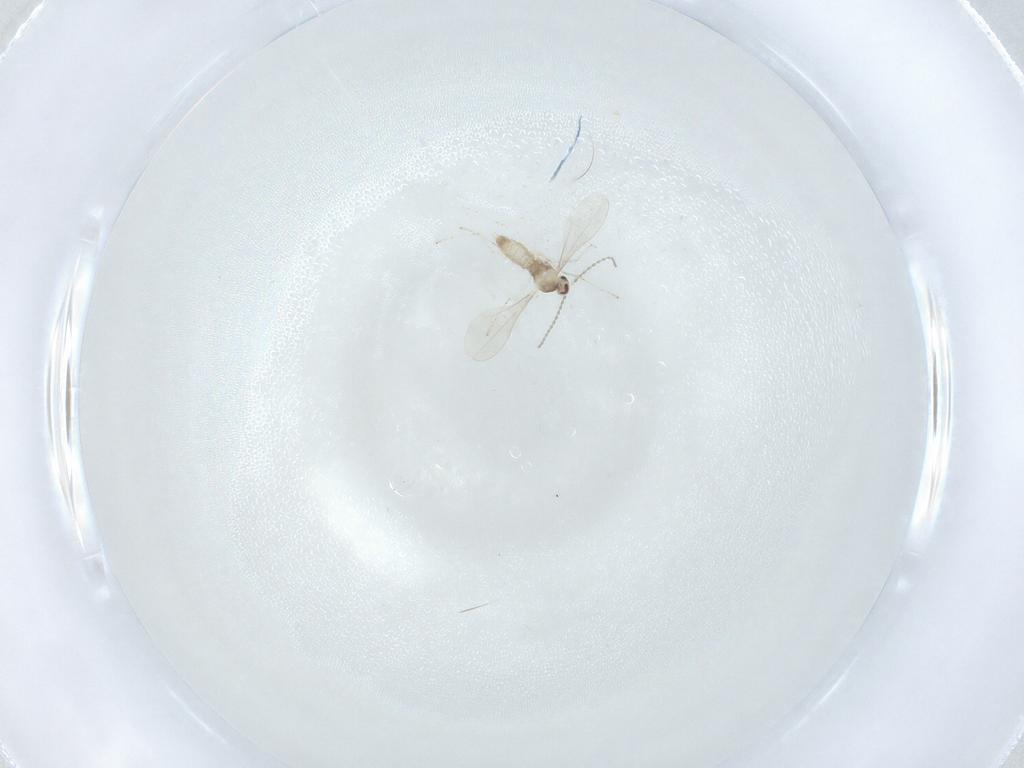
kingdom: Animalia
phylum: Arthropoda
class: Insecta
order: Diptera
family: Cecidomyiidae
